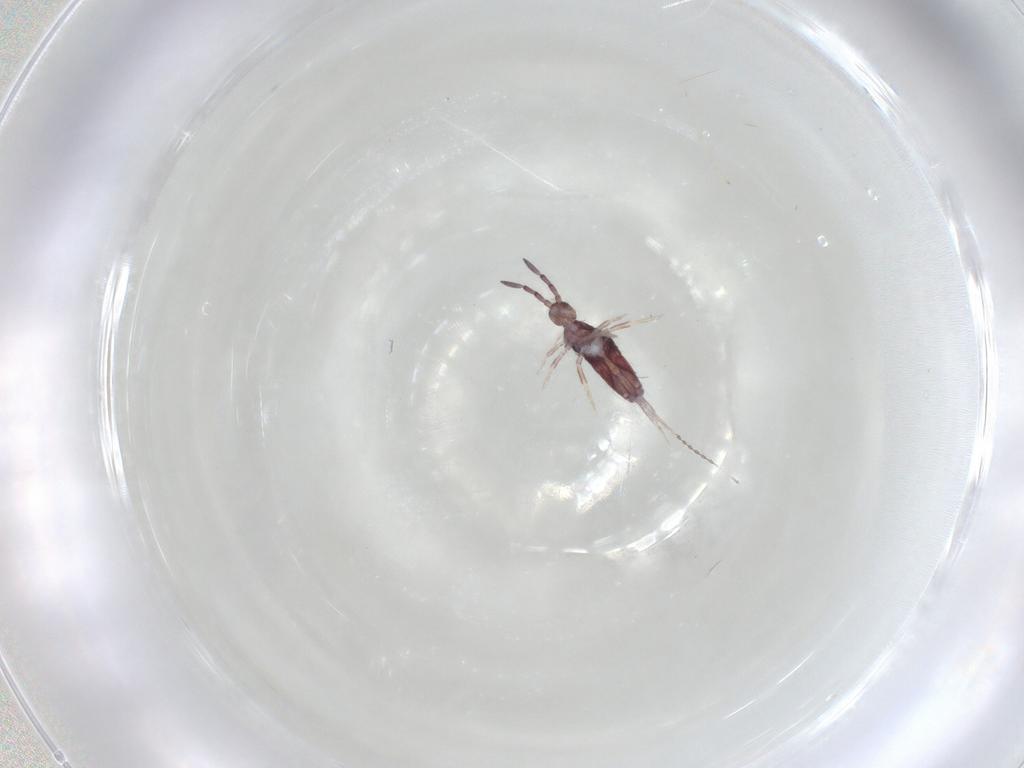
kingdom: Animalia
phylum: Arthropoda
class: Collembola
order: Entomobryomorpha
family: Entomobryidae
